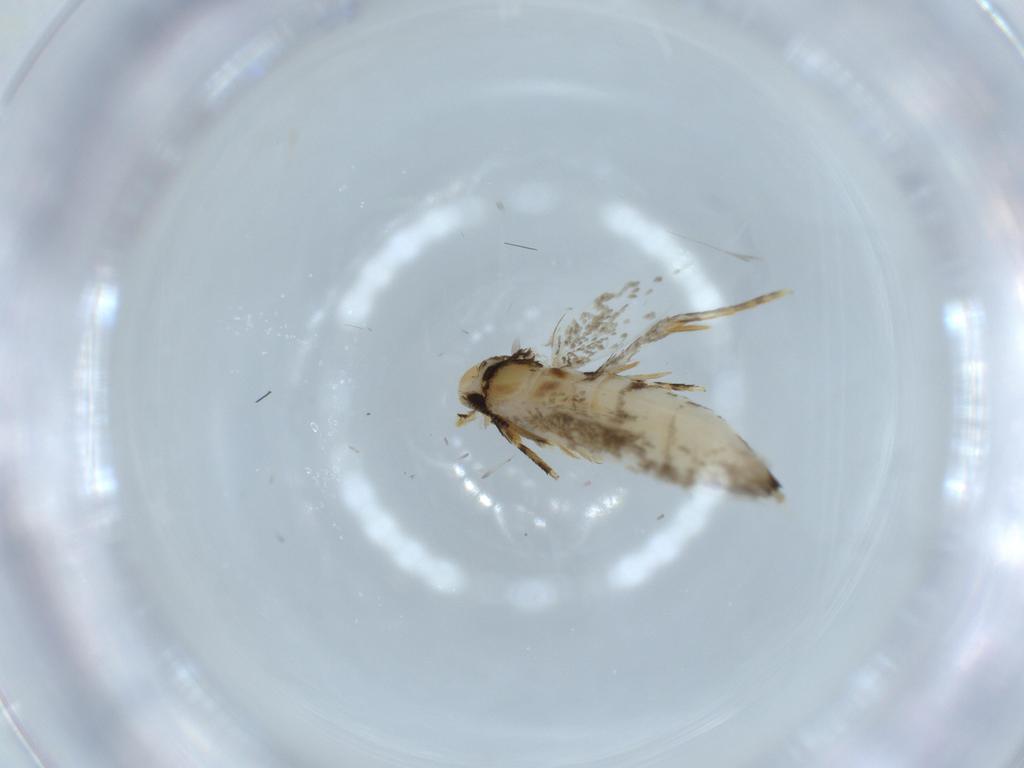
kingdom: Animalia
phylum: Arthropoda
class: Insecta
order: Lepidoptera
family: Tineidae
